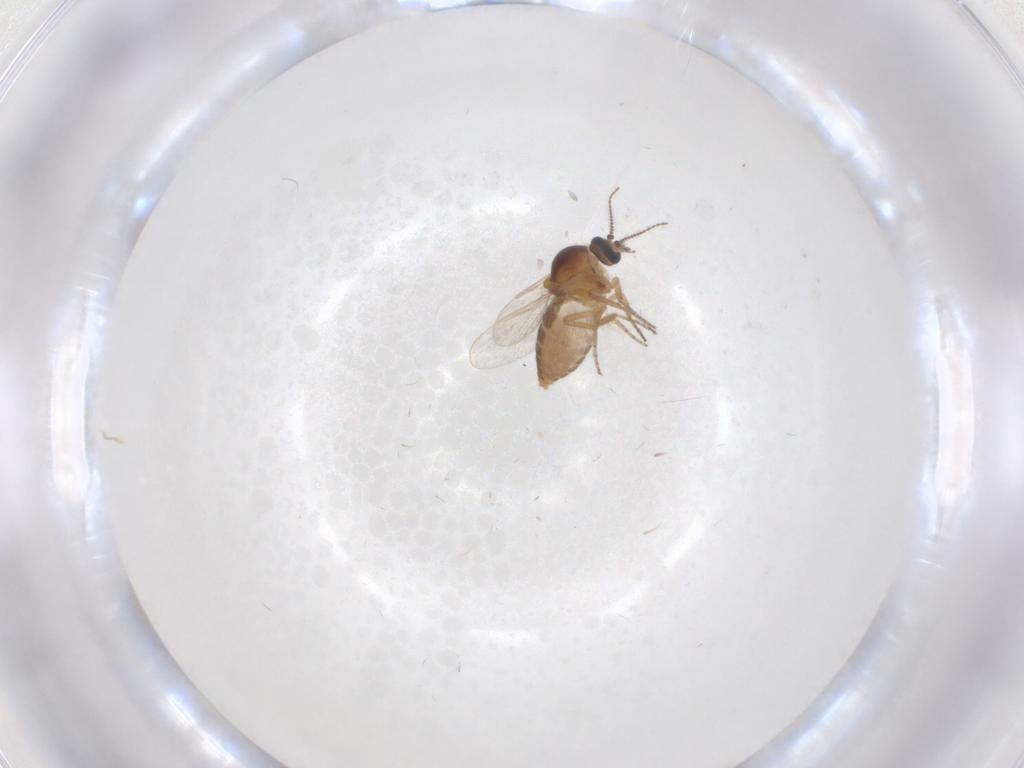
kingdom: Animalia
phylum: Arthropoda
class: Insecta
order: Diptera
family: Ceratopogonidae
